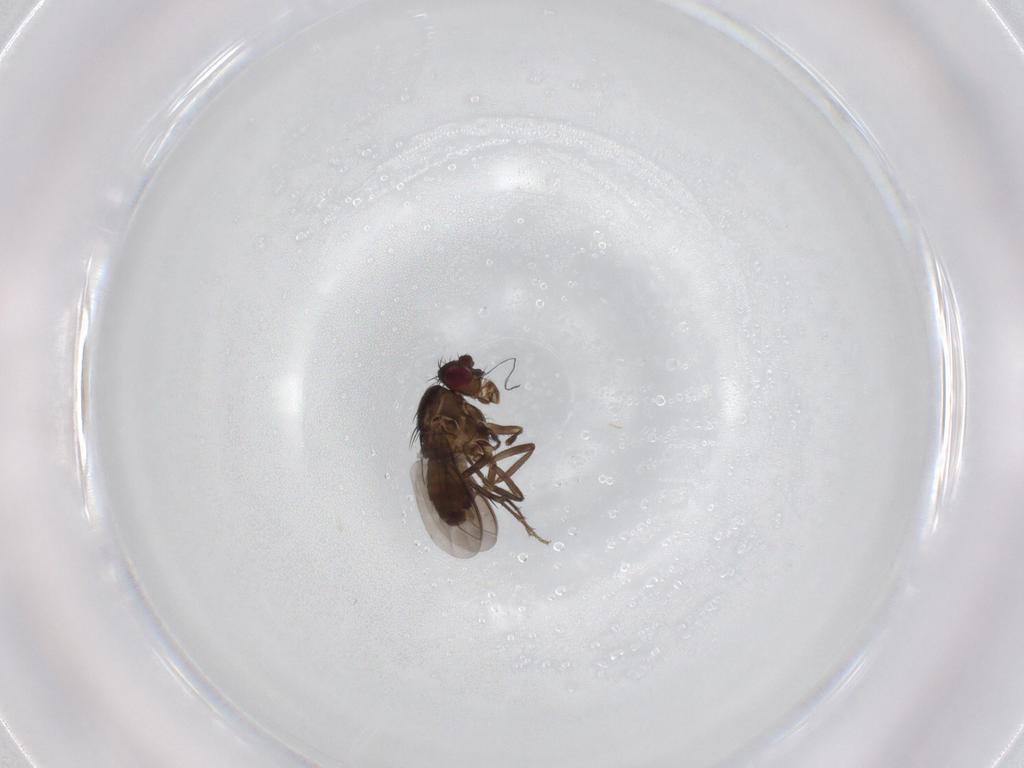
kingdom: Animalia
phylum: Arthropoda
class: Insecta
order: Diptera
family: Sphaeroceridae
